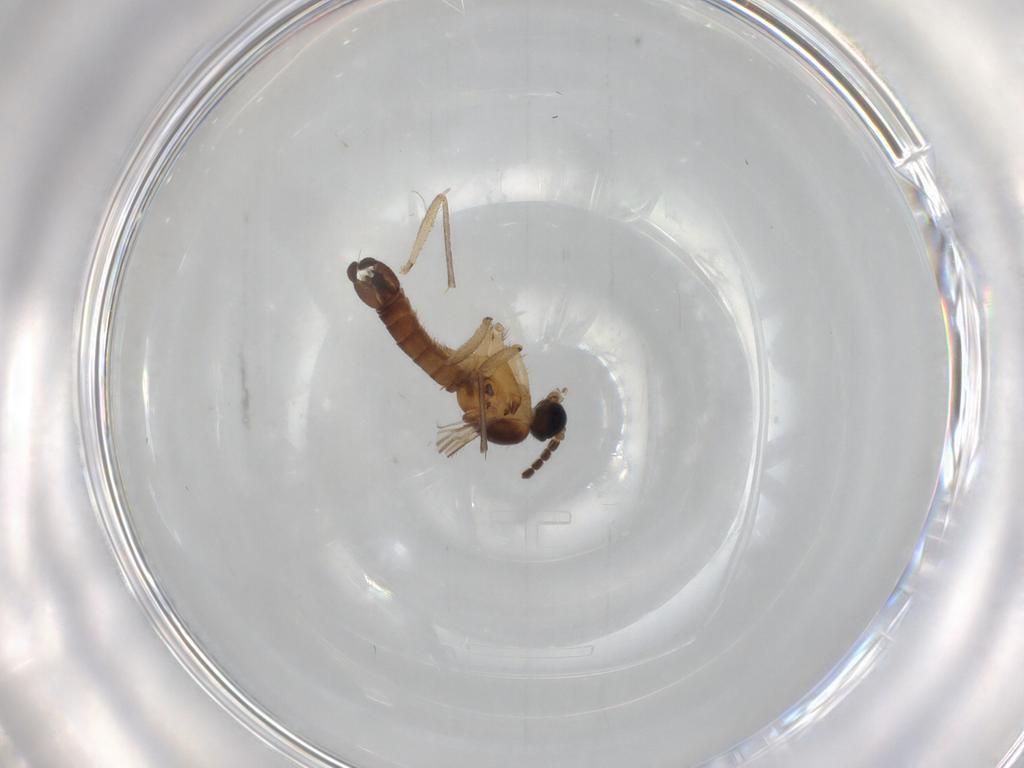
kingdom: Animalia
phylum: Arthropoda
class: Insecta
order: Diptera
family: Sciaridae
